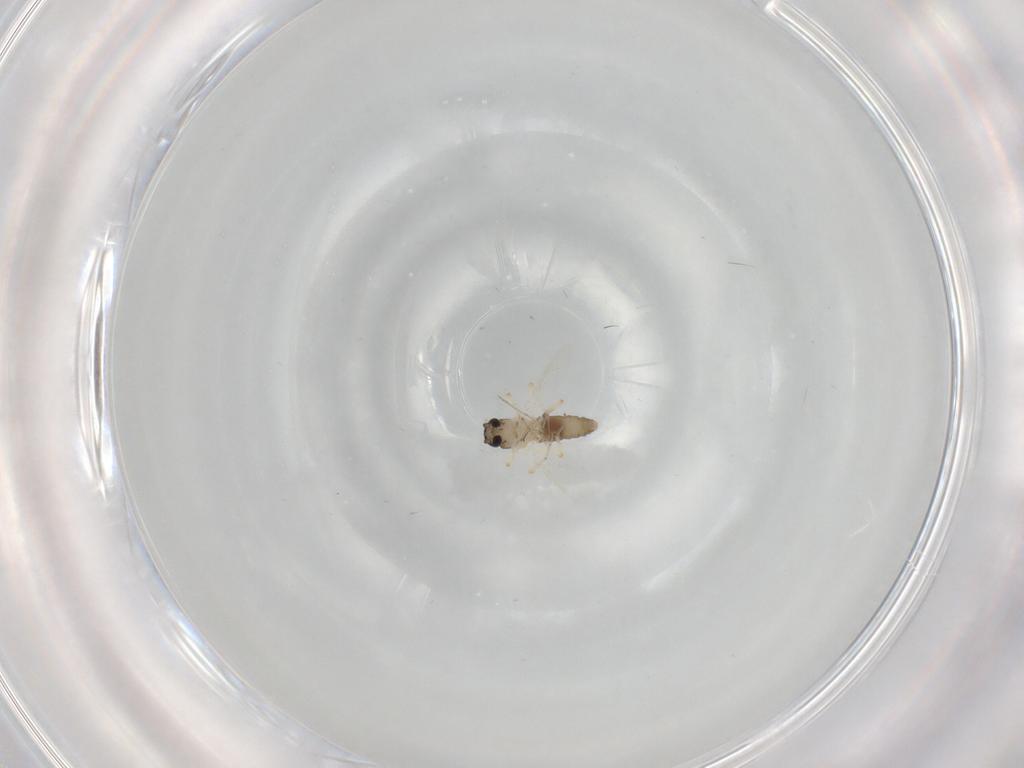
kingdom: Animalia
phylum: Arthropoda
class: Insecta
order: Diptera
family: Ceratopogonidae
